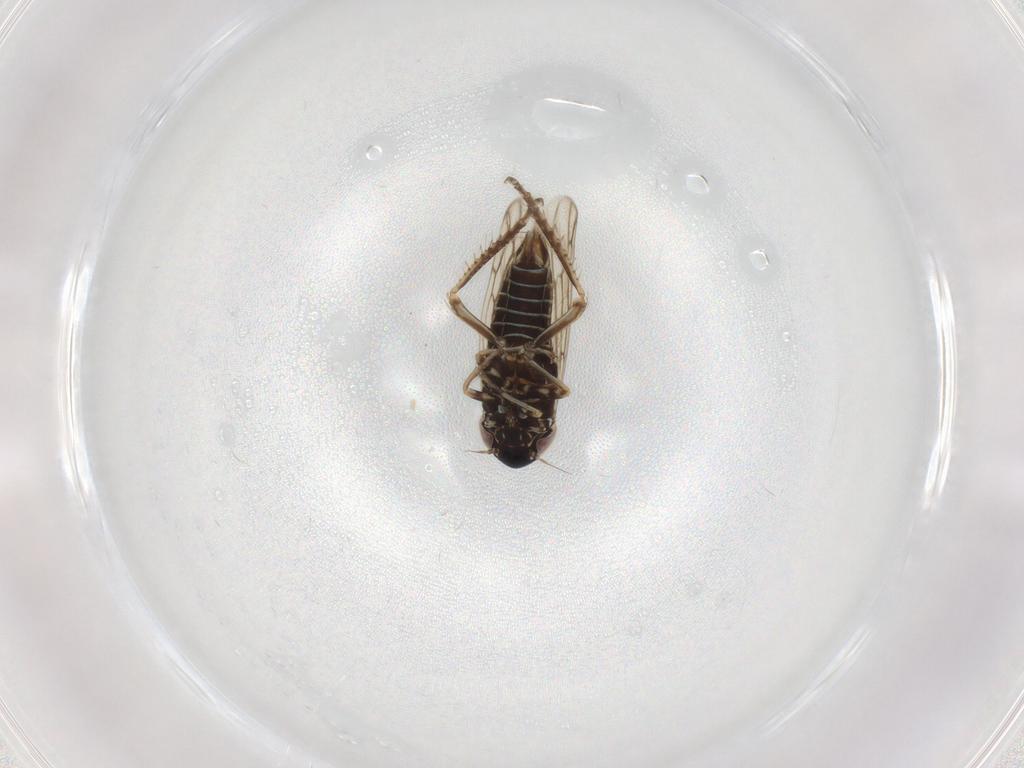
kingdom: Animalia
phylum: Arthropoda
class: Insecta
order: Hemiptera
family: Cicadellidae
